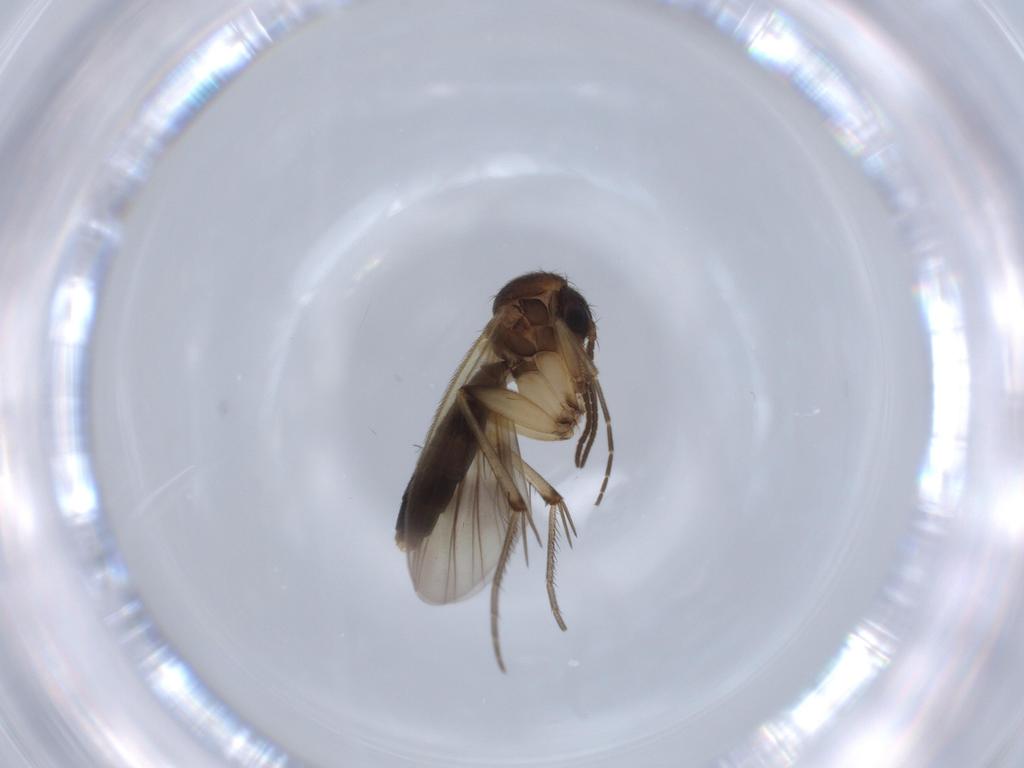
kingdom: Animalia
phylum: Arthropoda
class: Insecta
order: Diptera
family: Mycetophilidae
